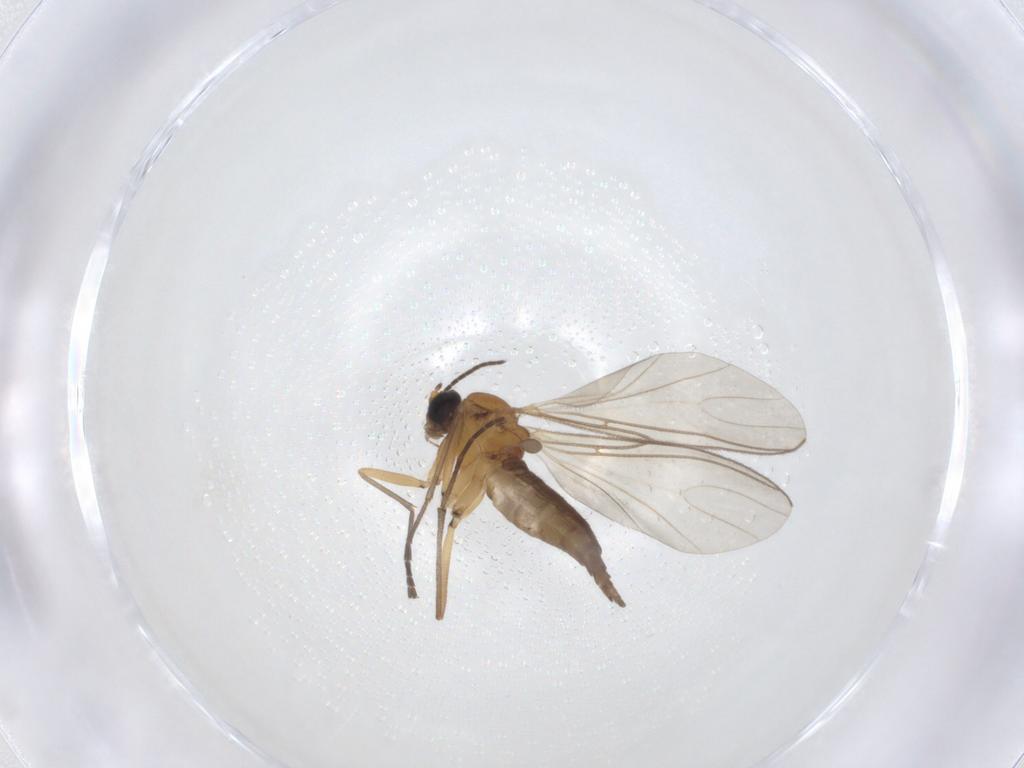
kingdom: Animalia
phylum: Arthropoda
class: Insecta
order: Diptera
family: Sciaridae
